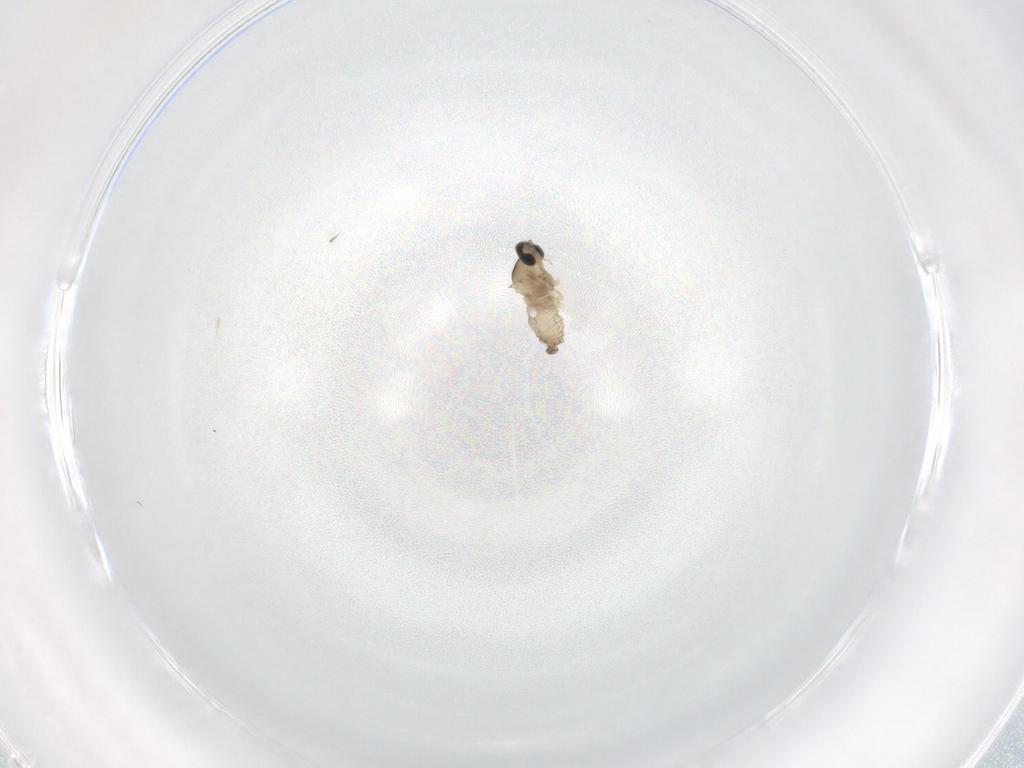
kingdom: Animalia
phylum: Arthropoda
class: Insecta
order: Diptera
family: Cecidomyiidae
